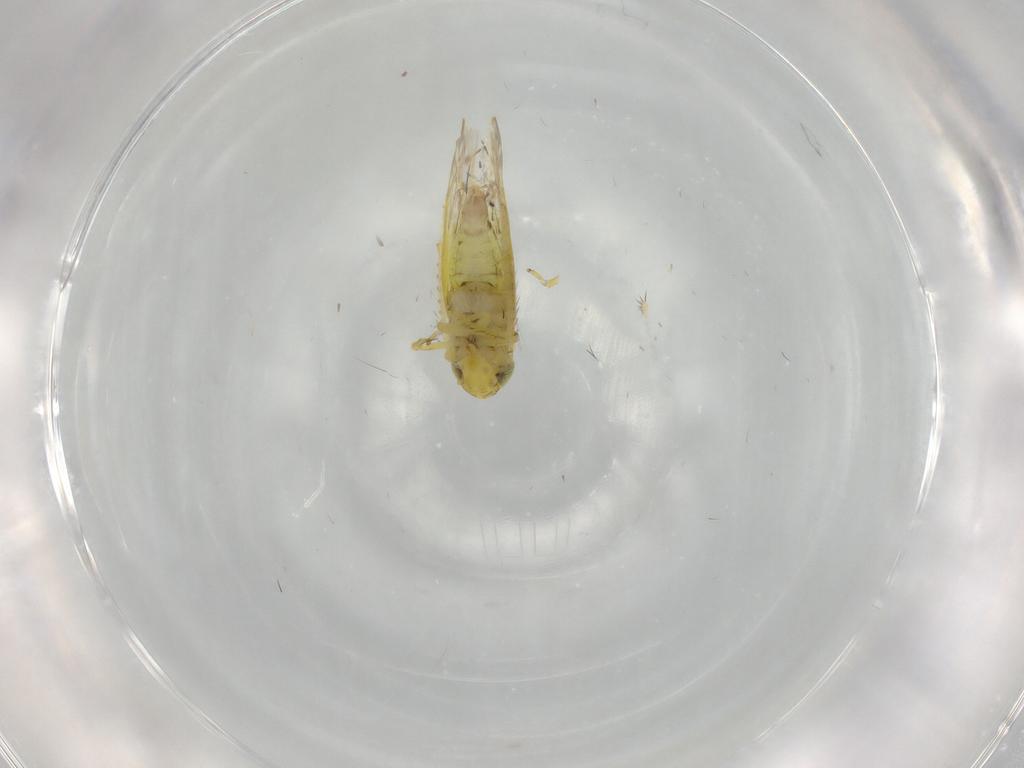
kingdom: Animalia
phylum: Arthropoda
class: Insecta
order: Hemiptera
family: Cicadellidae
